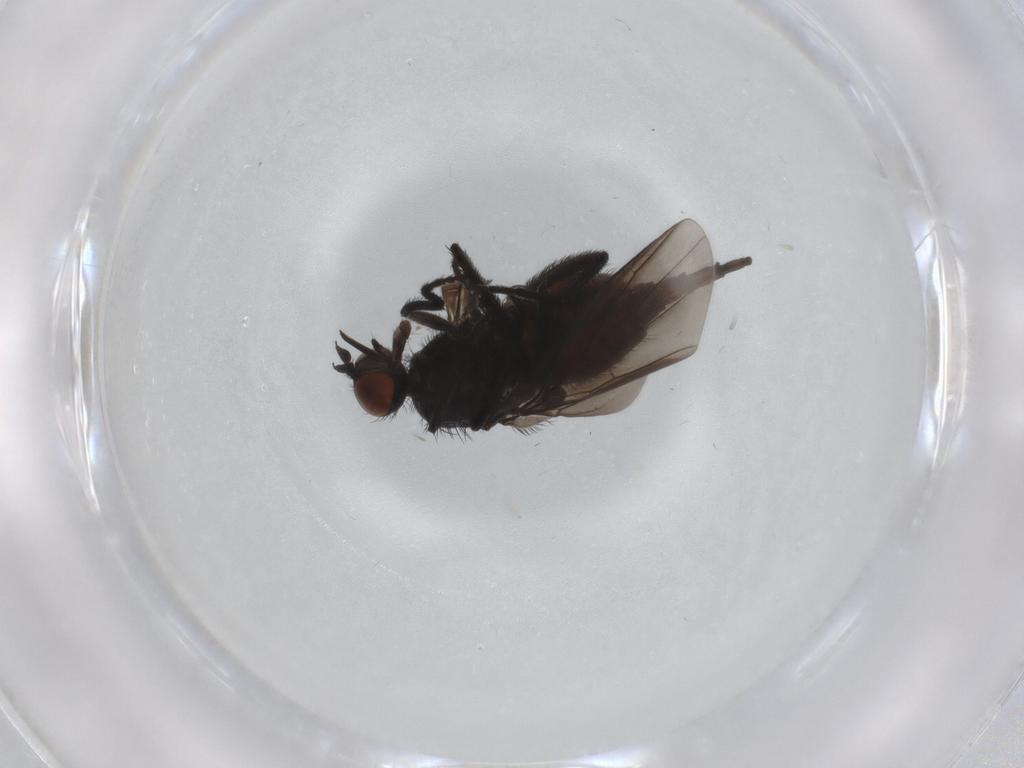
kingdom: Animalia
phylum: Arthropoda
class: Insecta
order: Diptera
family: Empididae
